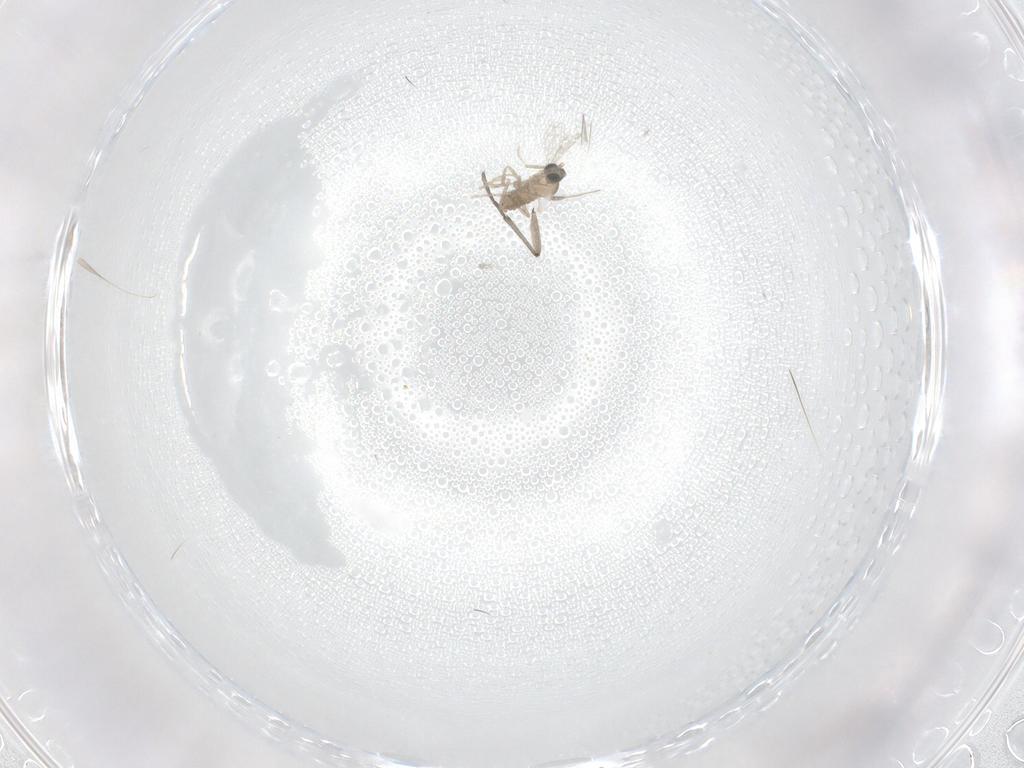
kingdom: Animalia
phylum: Arthropoda
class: Insecta
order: Diptera
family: Cecidomyiidae
